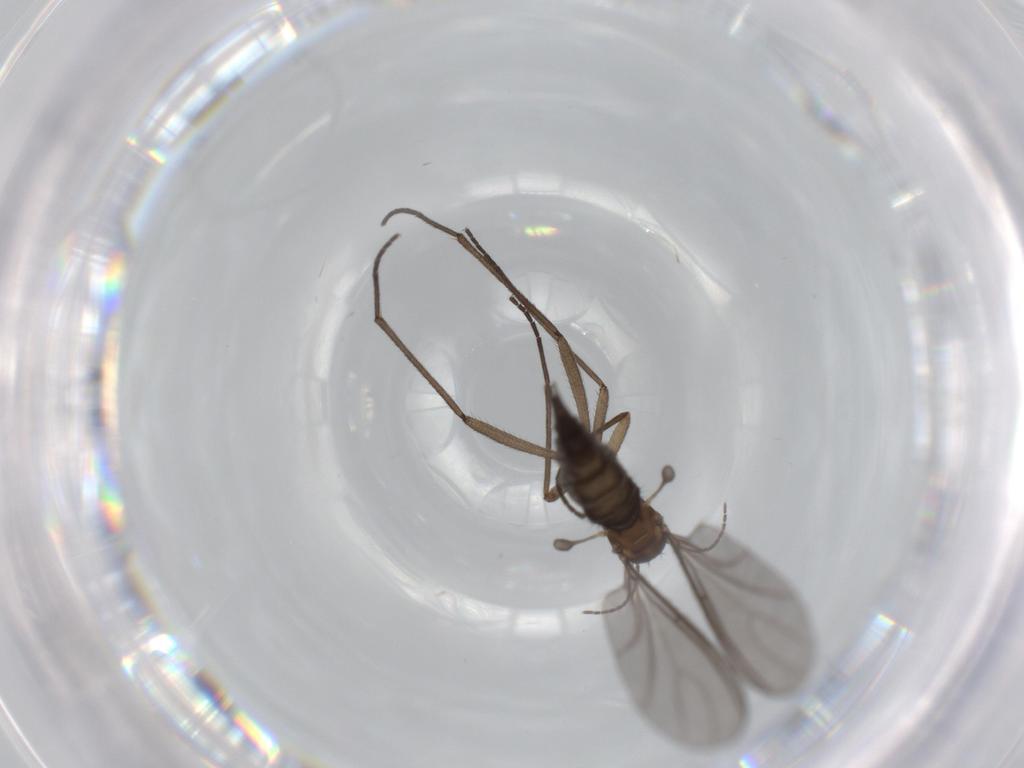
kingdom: Animalia
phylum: Arthropoda
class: Insecta
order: Diptera
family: Sciaridae
